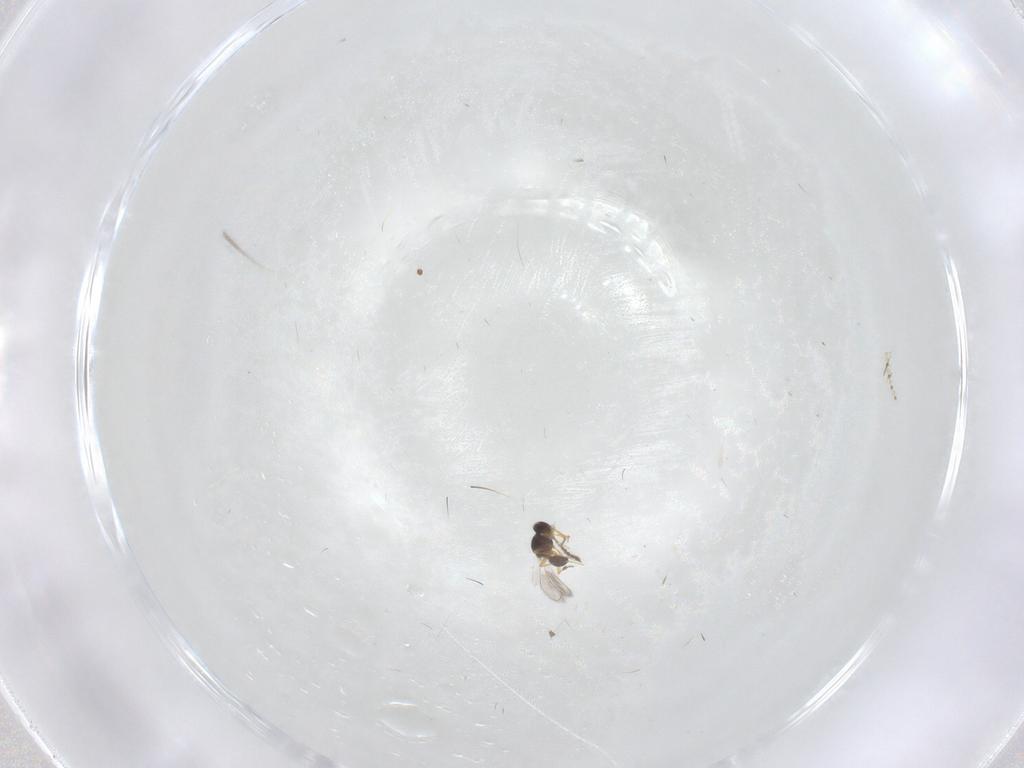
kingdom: Animalia
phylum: Arthropoda
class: Insecta
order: Hymenoptera
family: Platygastridae
